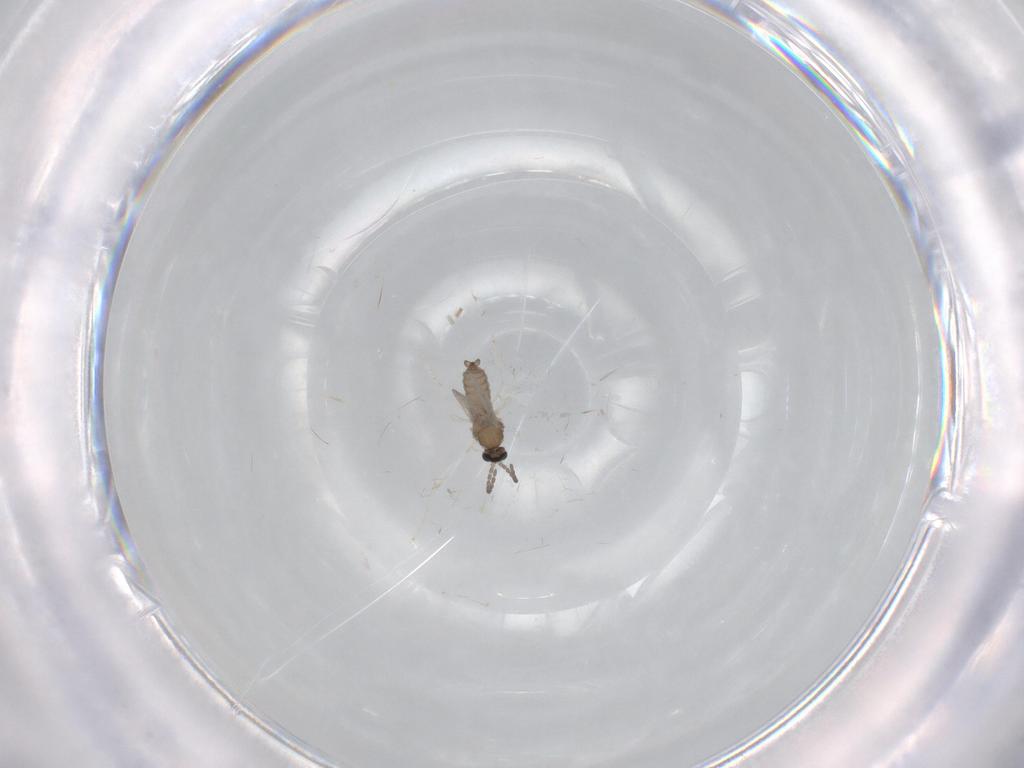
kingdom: Animalia
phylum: Arthropoda
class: Insecta
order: Diptera
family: Cecidomyiidae
